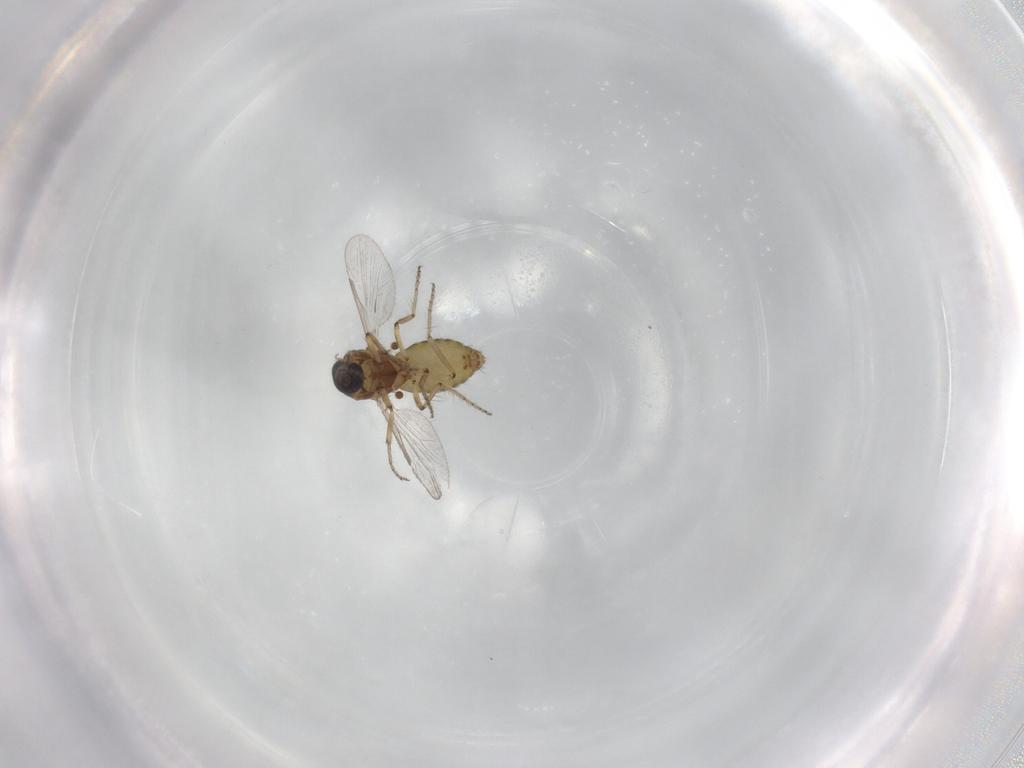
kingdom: Animalia
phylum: Arthropoda
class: Insecta
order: Diptera
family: Ceratopogonidae
